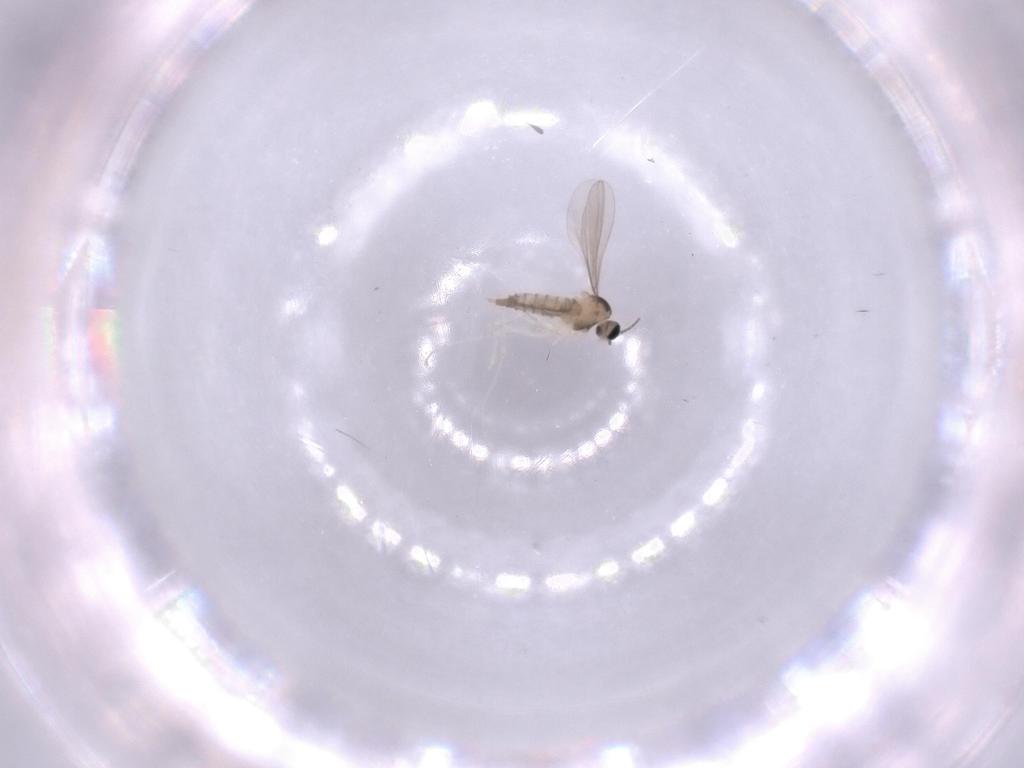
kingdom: Animalia
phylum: Arthropoda
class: Insecta
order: Diptera
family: Sciaridae
